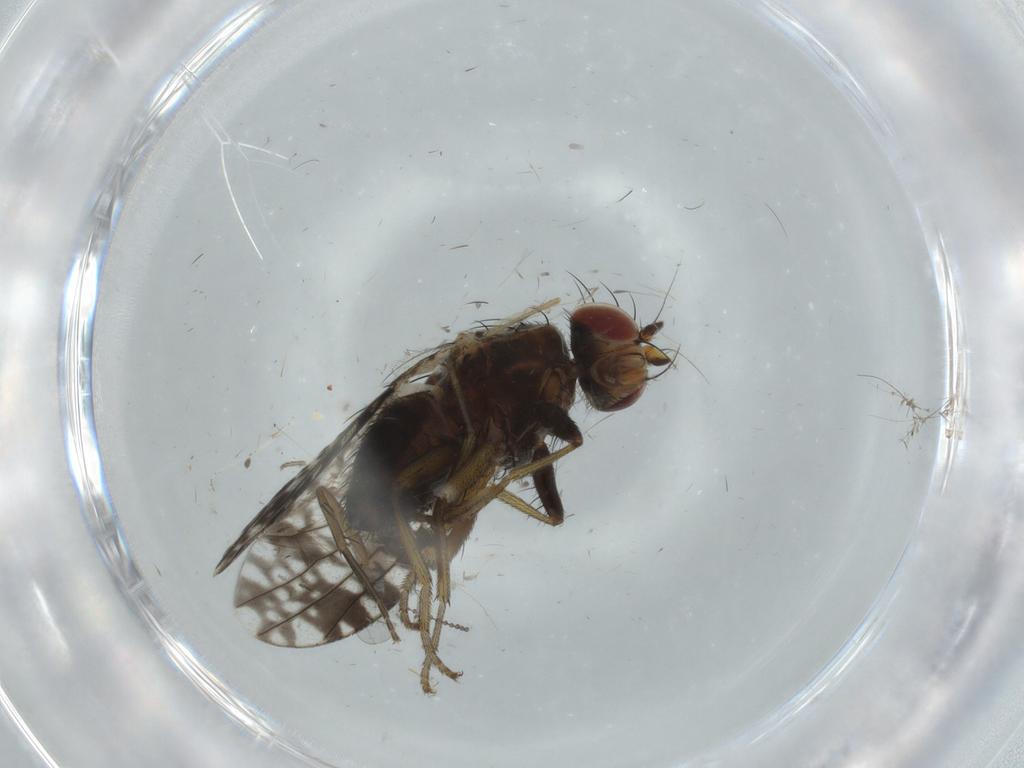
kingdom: Animalia
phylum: Arthropoda
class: Insecta
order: Diptera
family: Tephritidae
